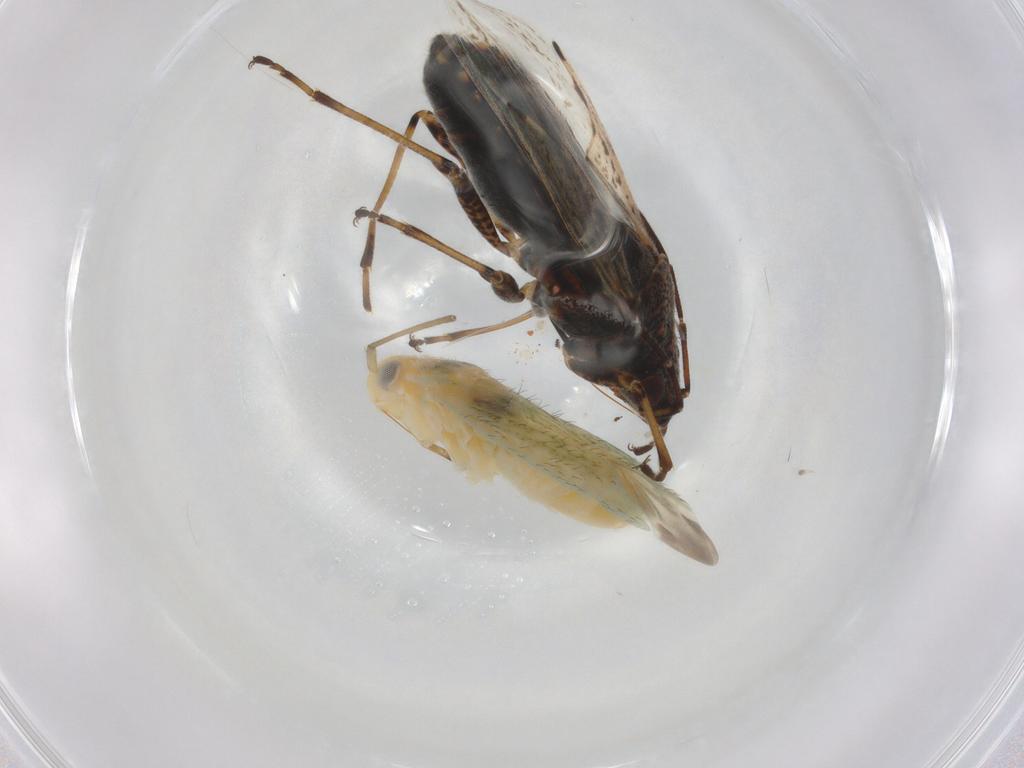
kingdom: Animalia
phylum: Arthropoda
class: Insecta
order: Hemiptera
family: Lygaeidae
